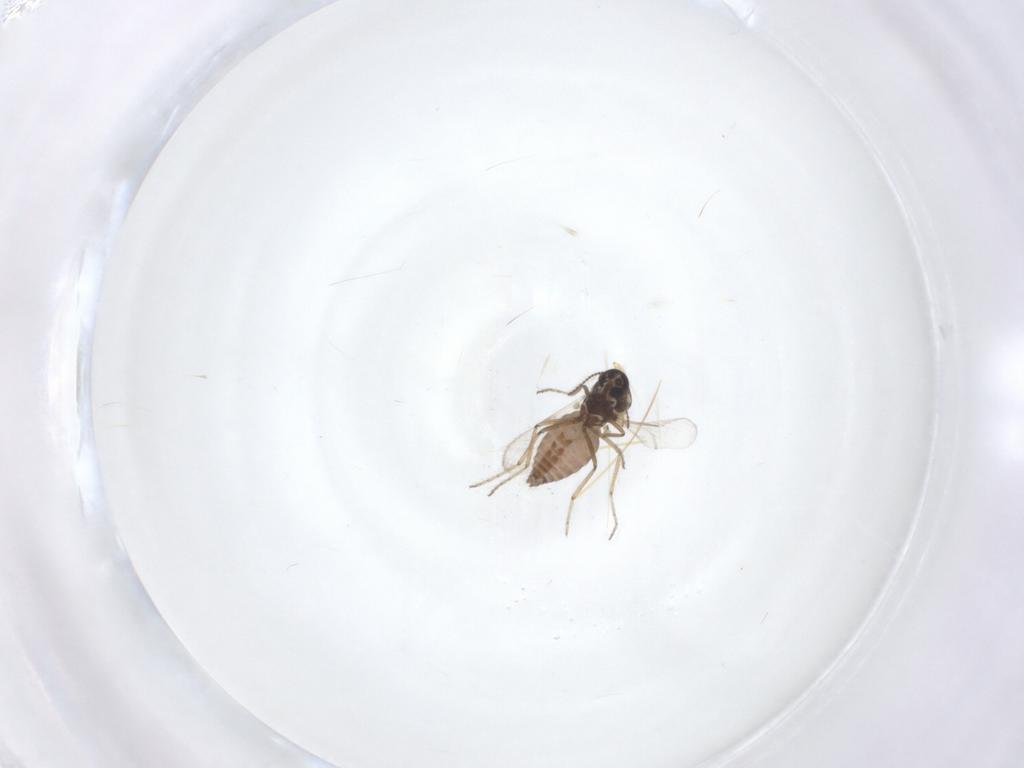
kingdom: Animalia
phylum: Arthropoda
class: Insecta
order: Diptera
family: Ceratopogonidae
